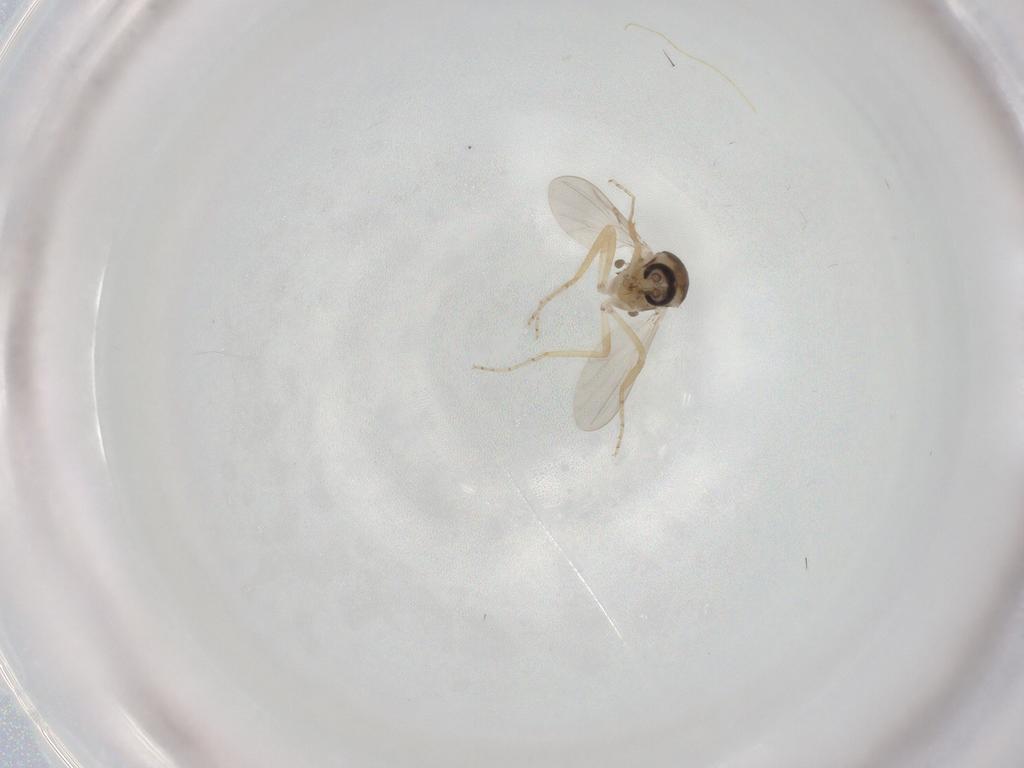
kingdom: Animalia
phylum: Arthropoda
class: Insecta
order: Diptera
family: Ceratopogonidae
